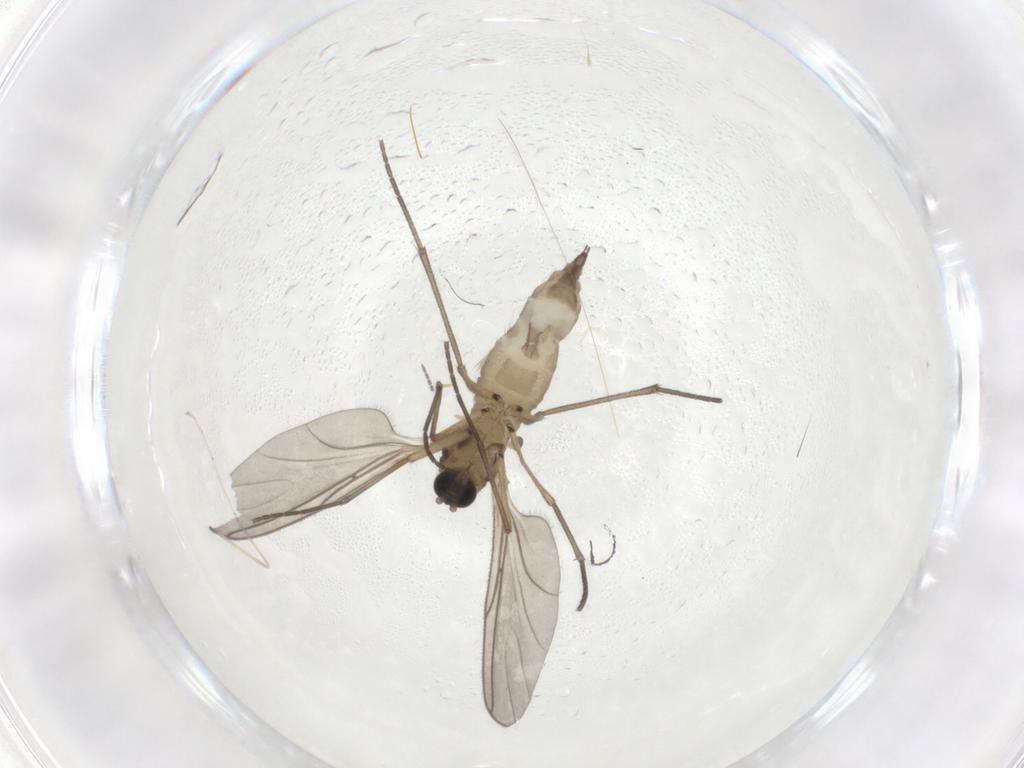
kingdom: Animalia
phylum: Arthropoda
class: Insecta
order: Diptera
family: Sciaridae
